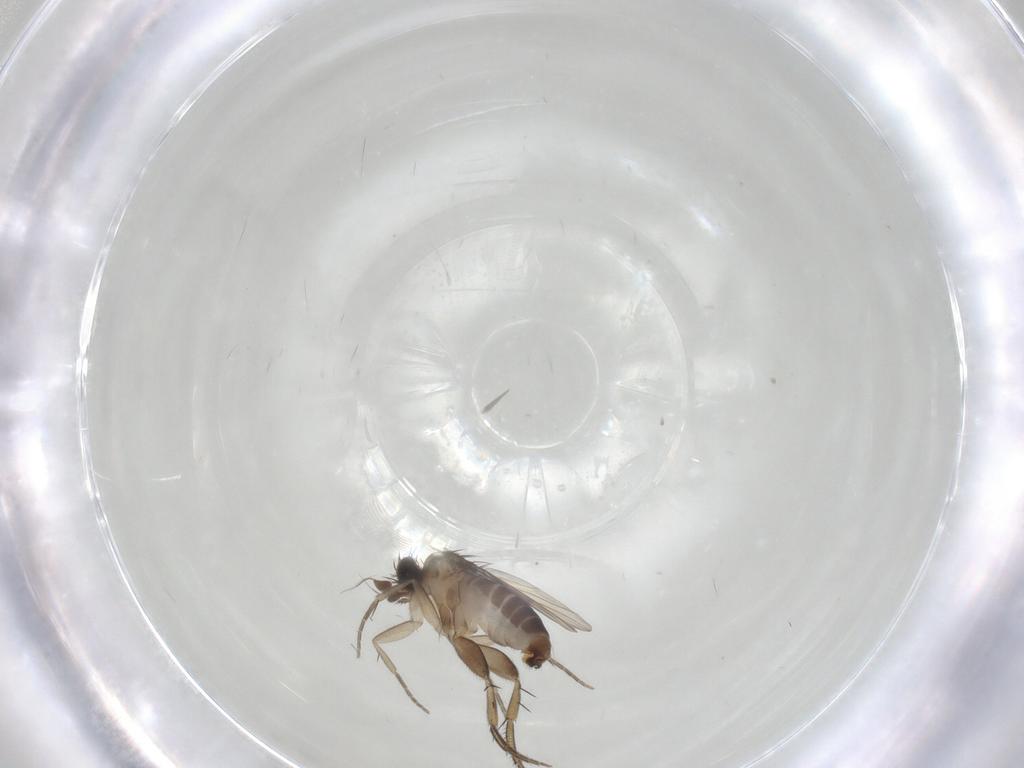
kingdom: Animalia
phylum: Arthropoda
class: Insecta
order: Diptera
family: Phoridae
